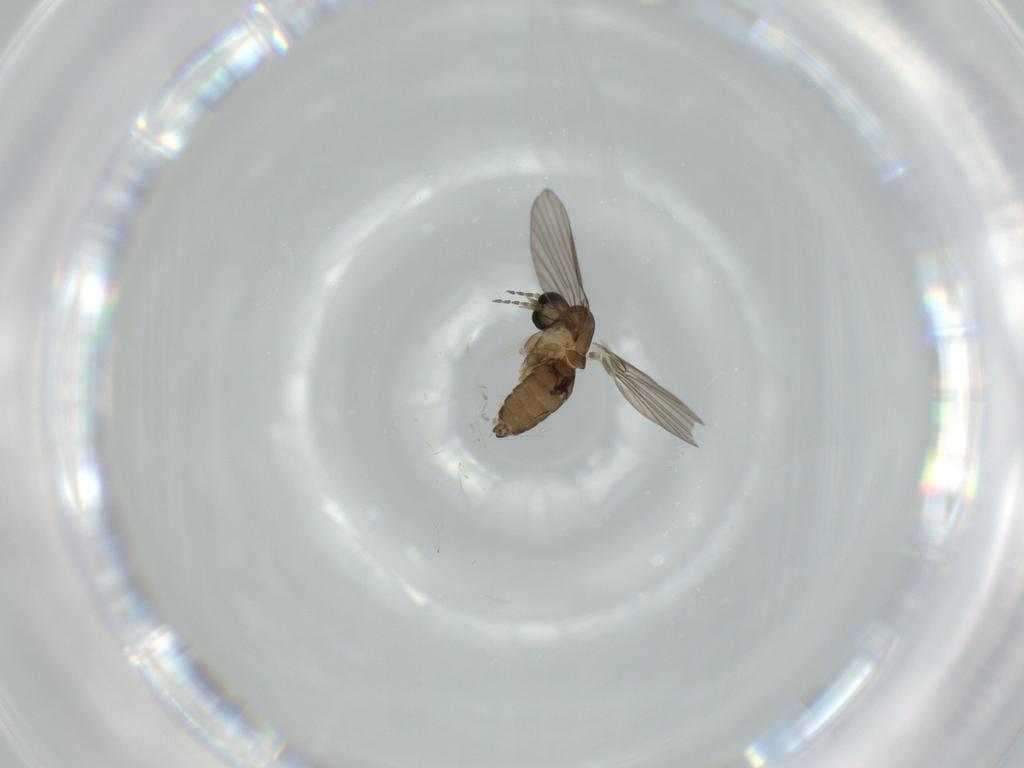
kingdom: Animalia
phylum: Arthropoda
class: Insecta
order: Diptera
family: Psychodidae
